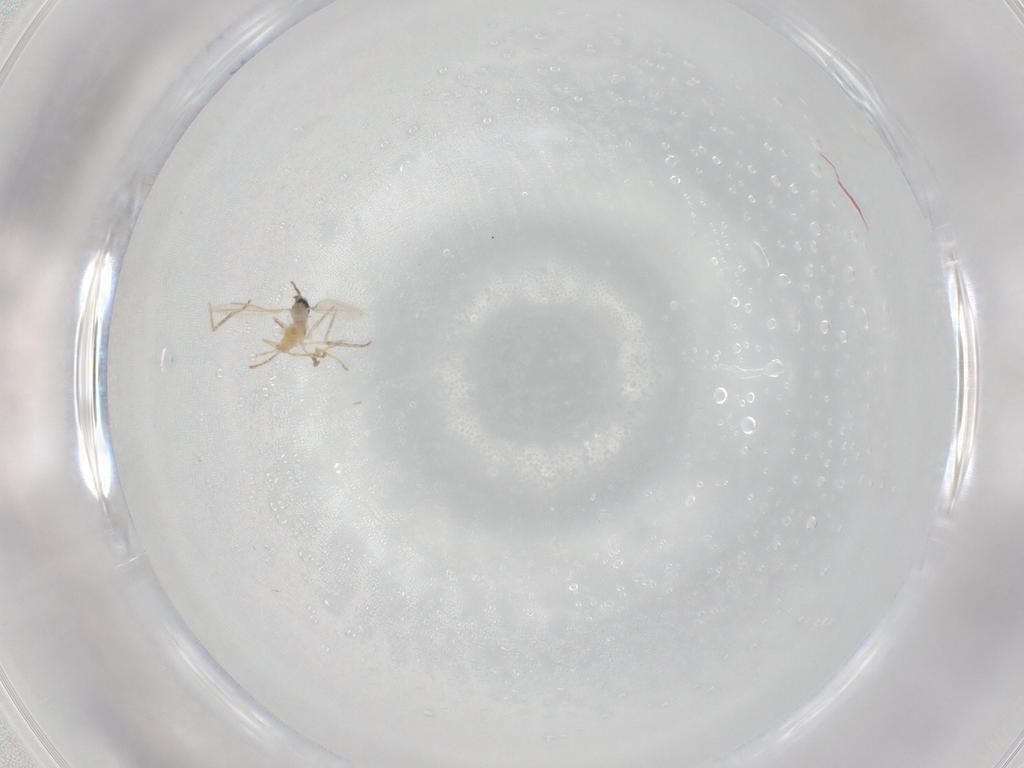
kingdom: Animalia
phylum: Arthropoda
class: Insecta
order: Diptera
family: Cecidomyiidae
